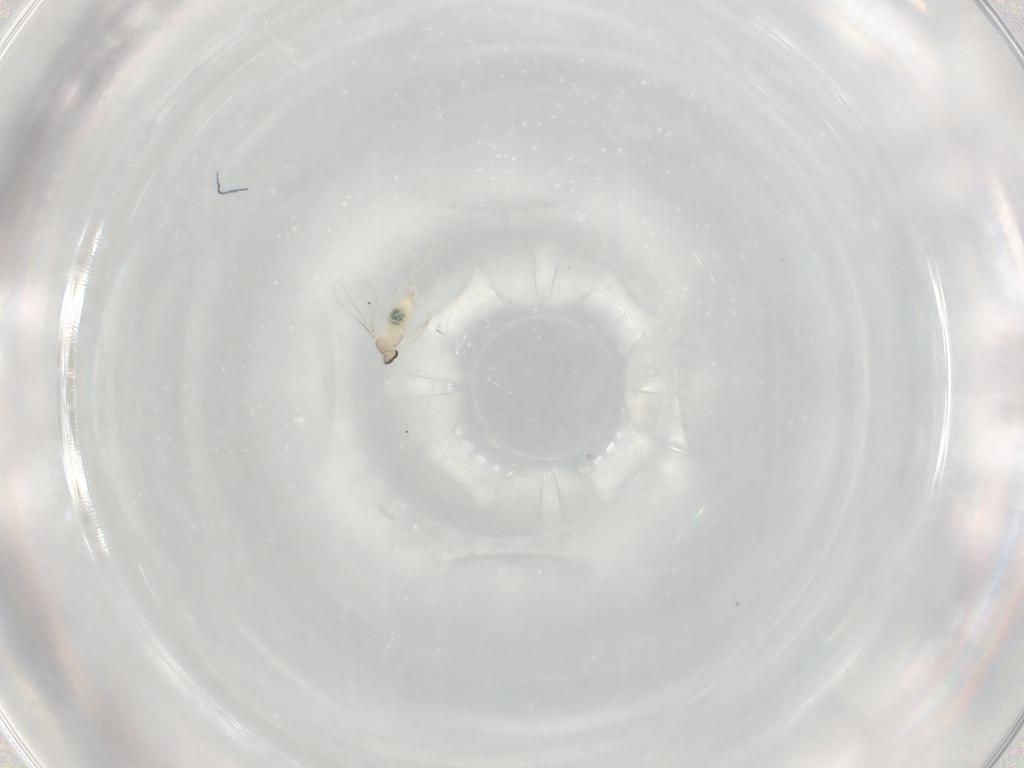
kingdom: Animalia
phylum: Arthropoda
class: Insecta
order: Diptera
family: Cecidomyiidae
